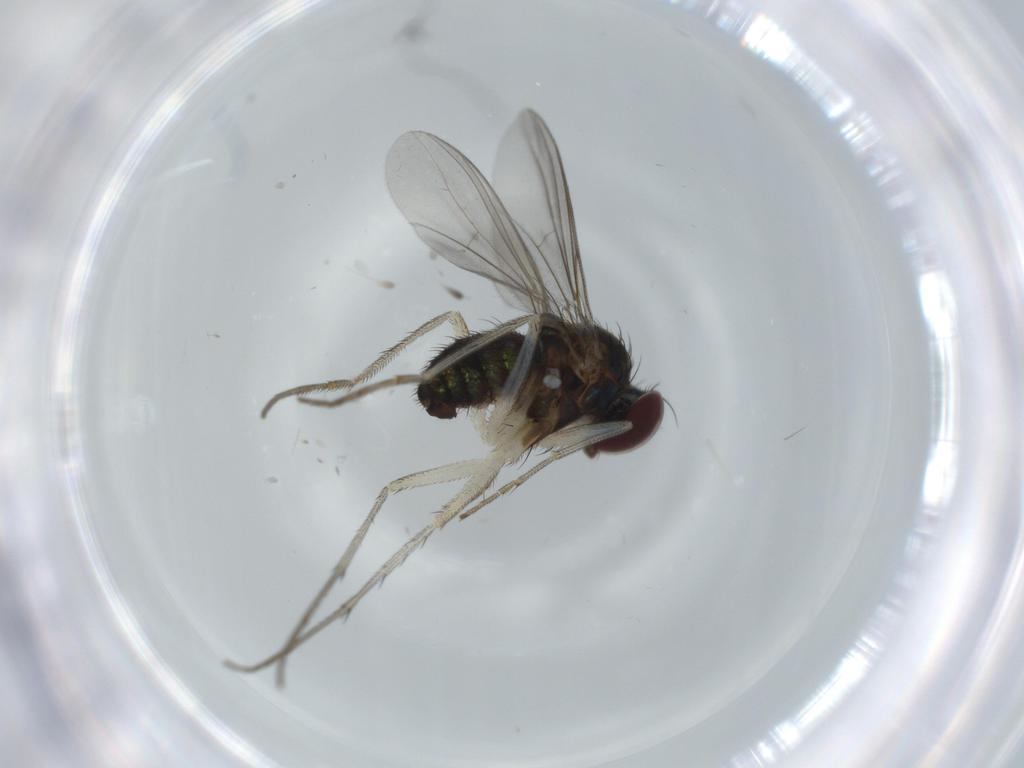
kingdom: Animalia
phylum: Arthropoda
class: Insecta
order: Diptera
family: Dolichopodidae
